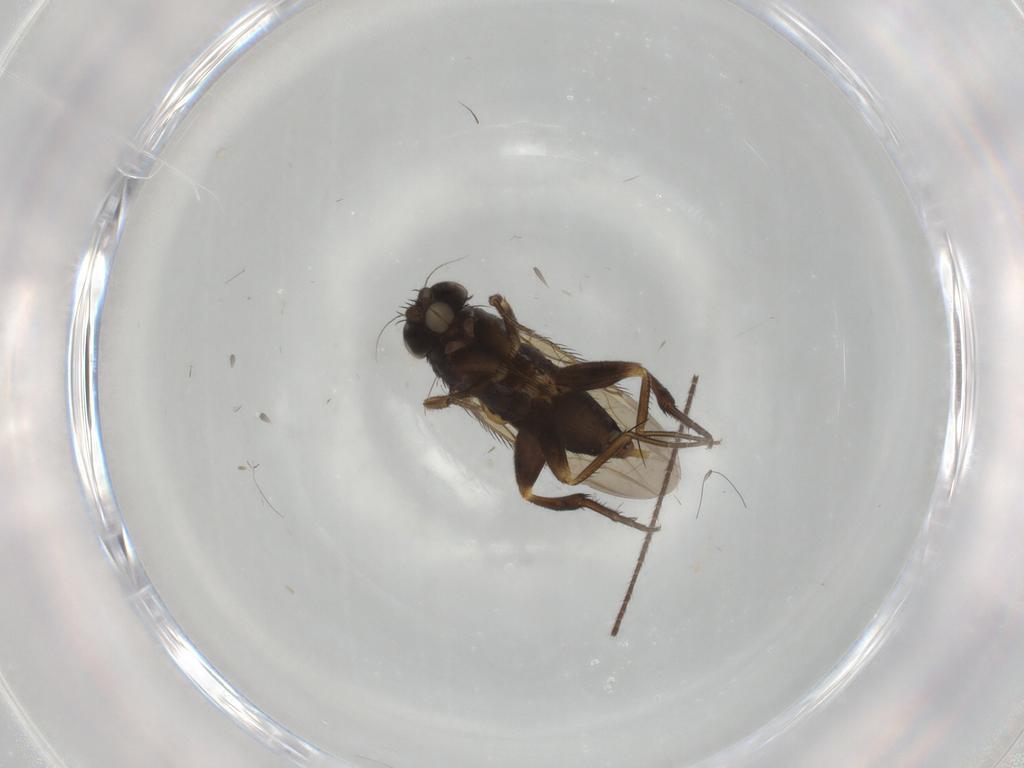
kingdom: Animalia
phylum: Arthropoda
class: Insecta
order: Diptera
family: Phoridae
